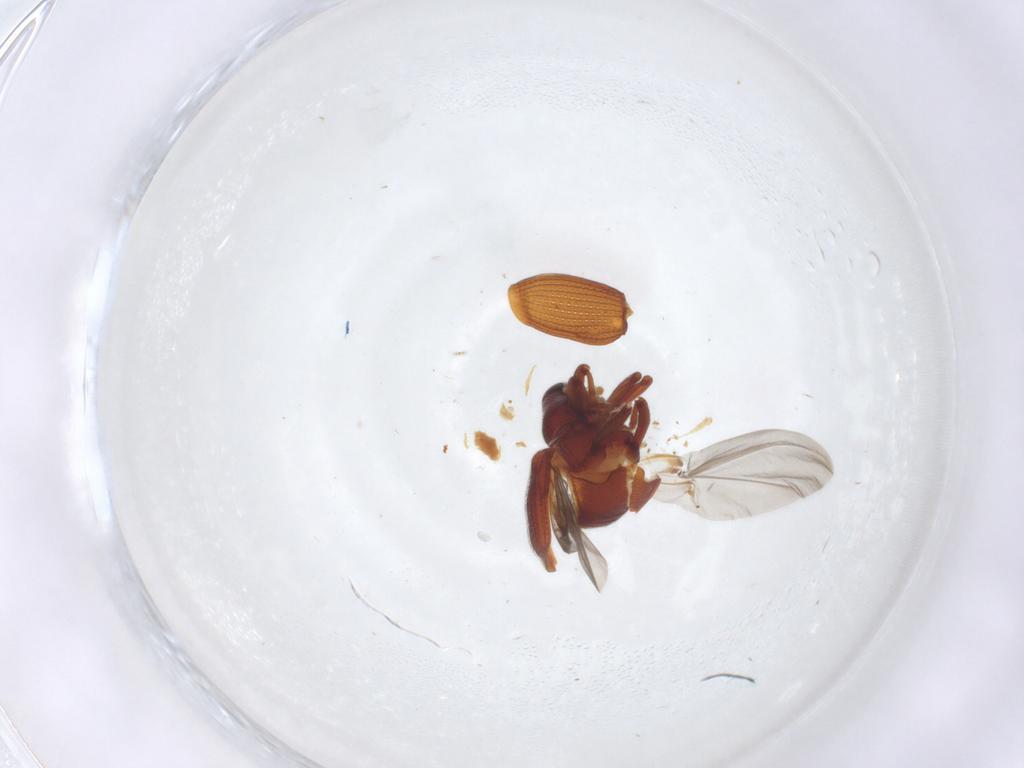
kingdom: Animalia
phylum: Arthropoda
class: Insecta
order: Coleoptera
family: Curculionidae
